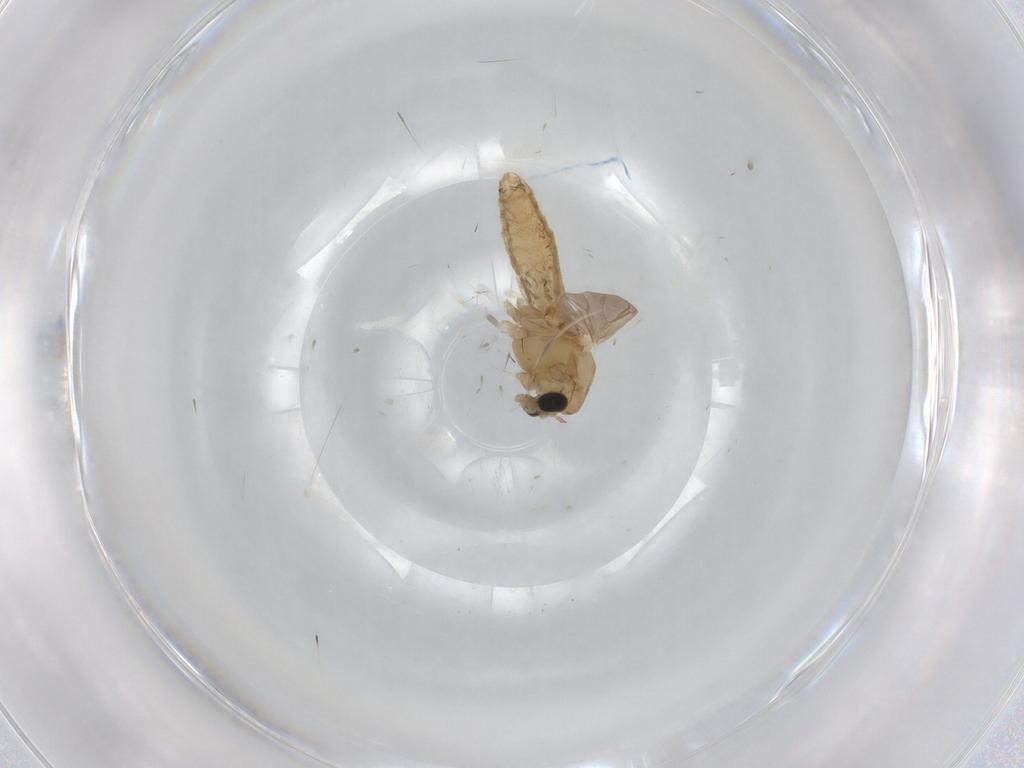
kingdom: Animalia
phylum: Arthropoda
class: Insecta
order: Diptera
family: Chironomidae
